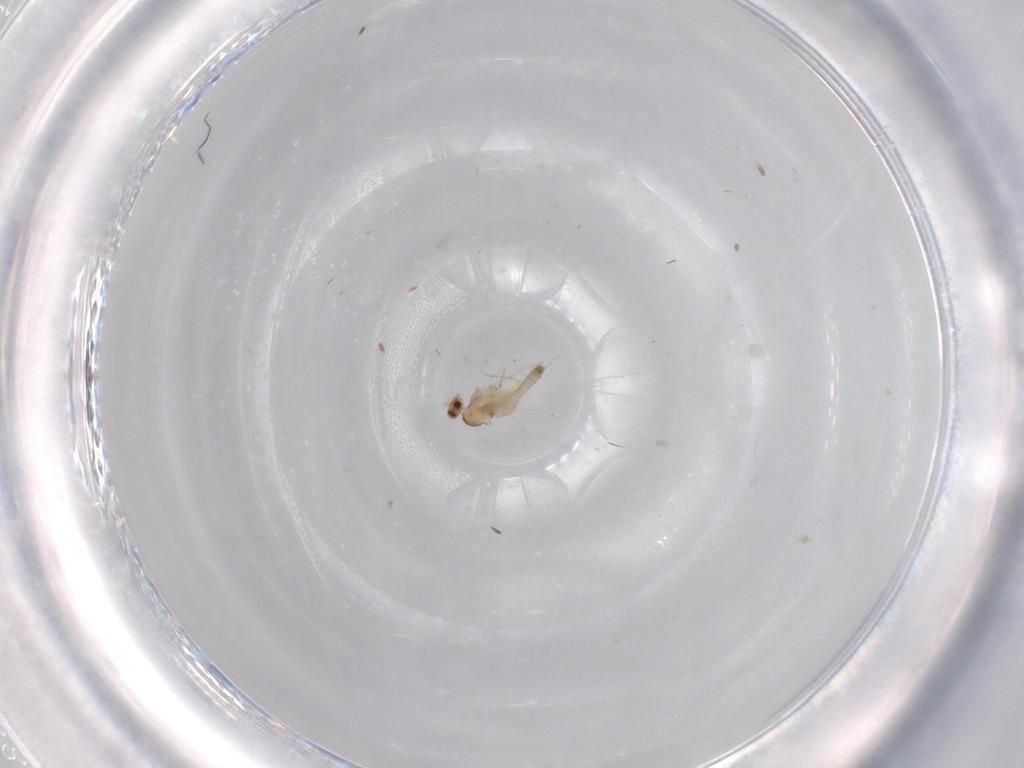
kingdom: Animalia
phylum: Arthropoda
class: Insecta
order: Diptera
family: Cecidomyiidae
